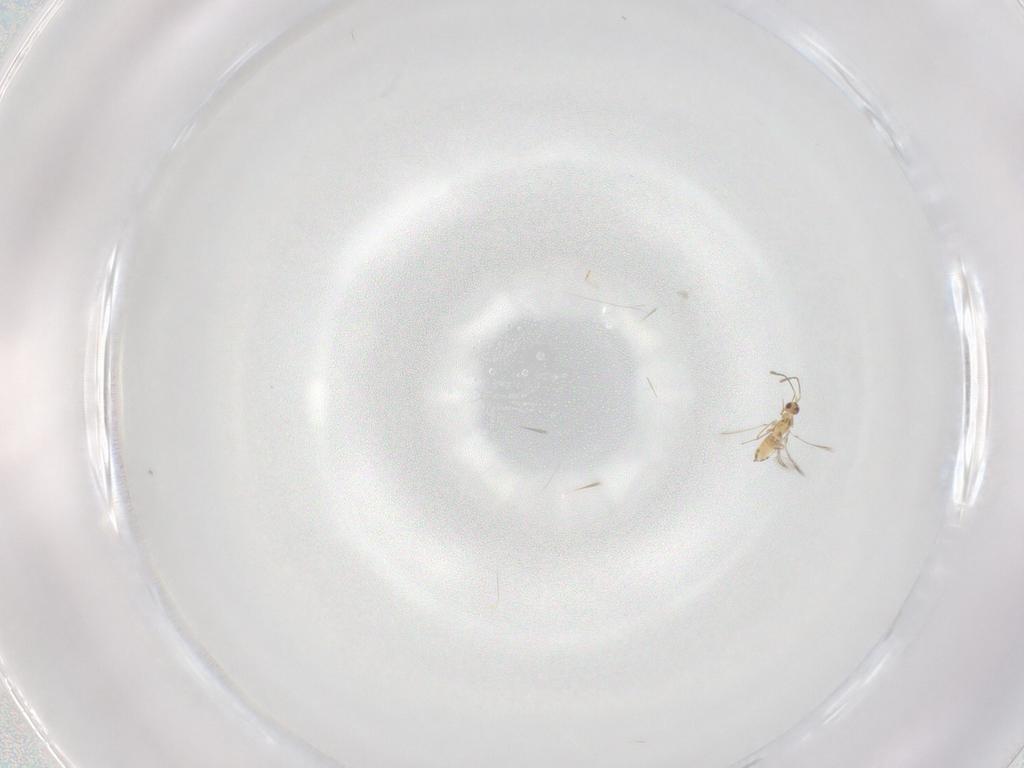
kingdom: Animalia
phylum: Arthropoda
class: Insecta
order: Hymenoptera
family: Mymaridae
